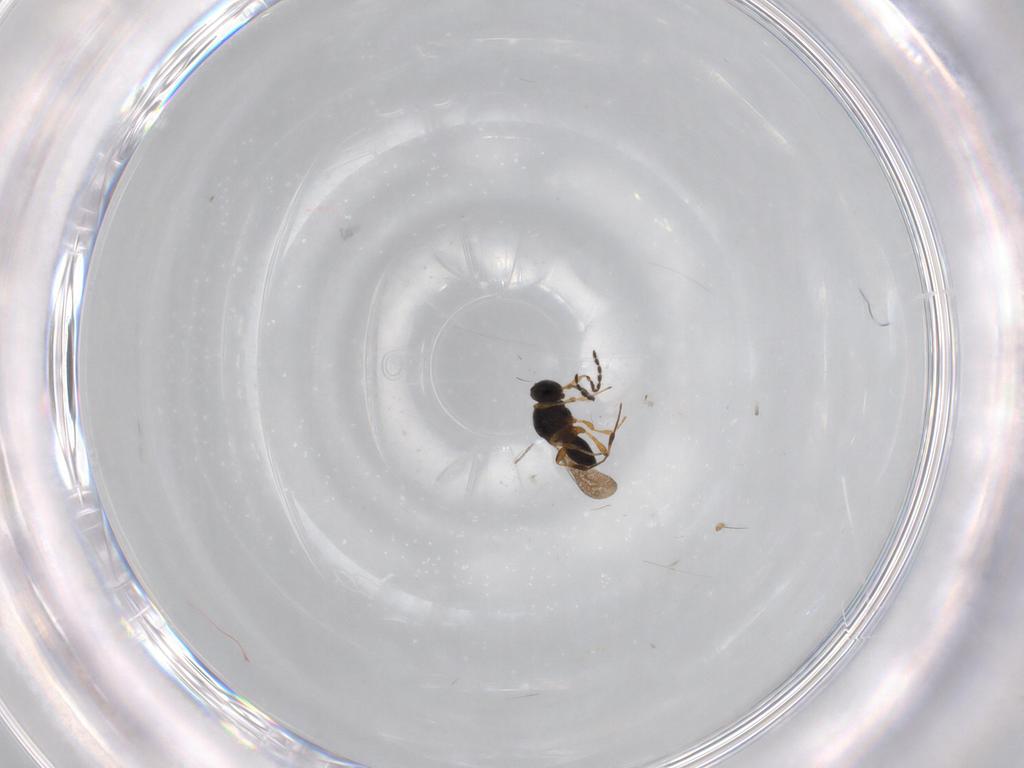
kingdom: Animalia
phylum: Arthropoda
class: Insecta
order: Hymenoptera
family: Platygastridae
